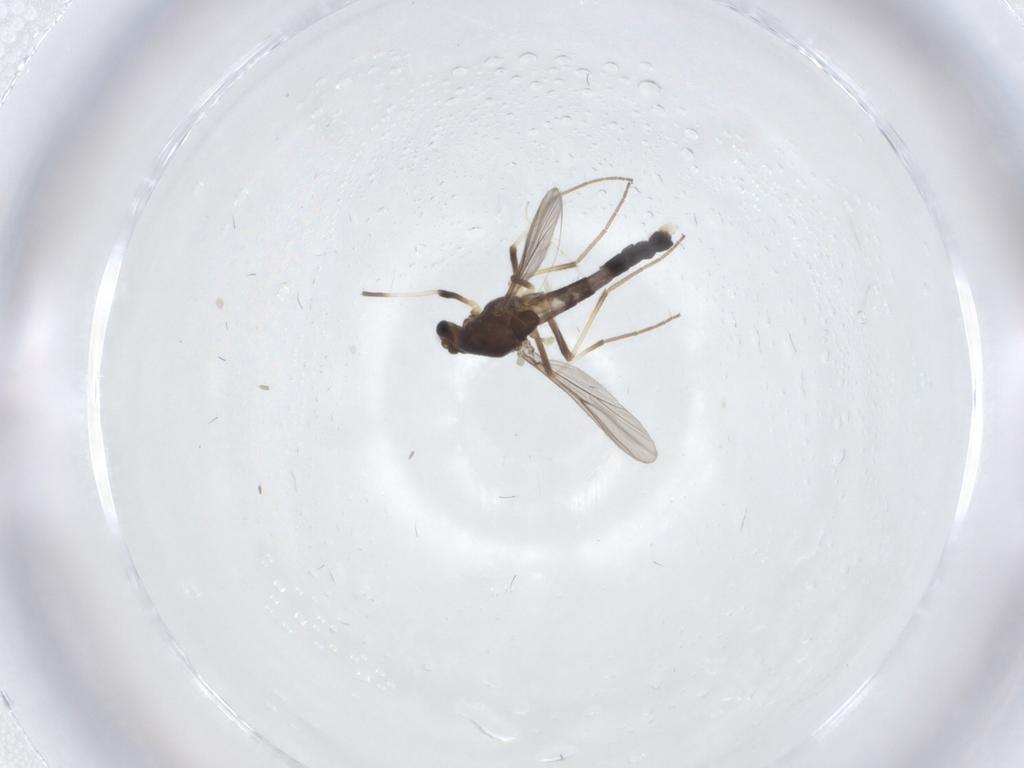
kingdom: Animalia
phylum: Arthropoda
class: Insecta
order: Diptera
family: Chironomidae
